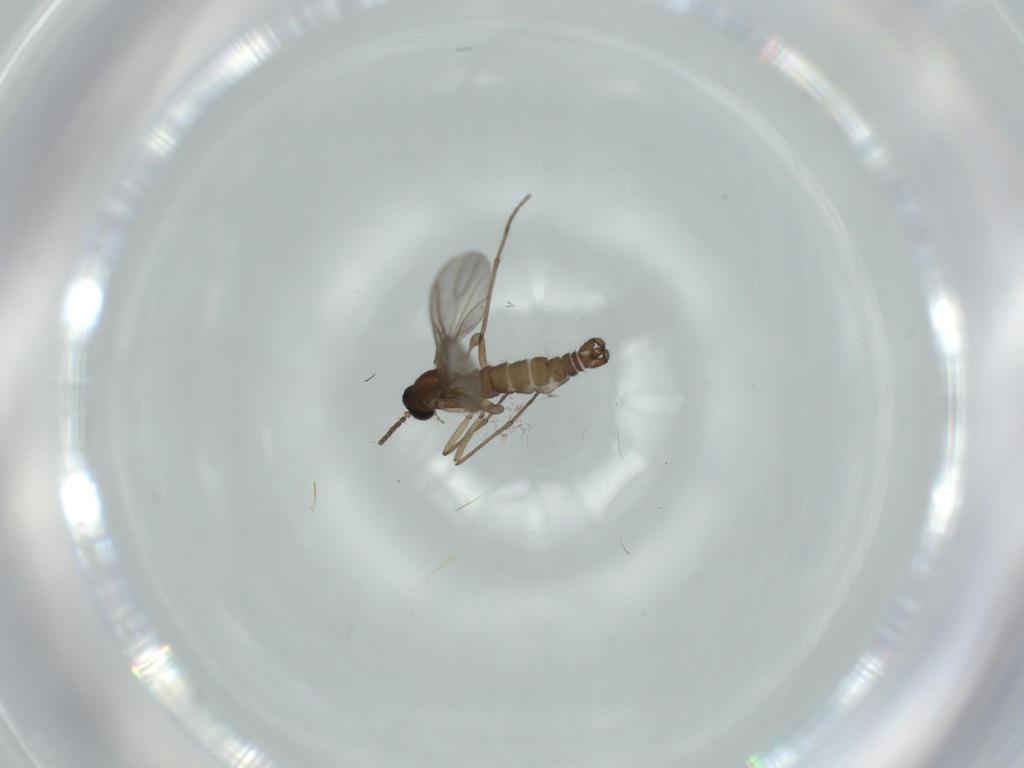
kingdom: Animalia
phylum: Arthropoda
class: Insecta
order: Diptera
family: Sciaridae
